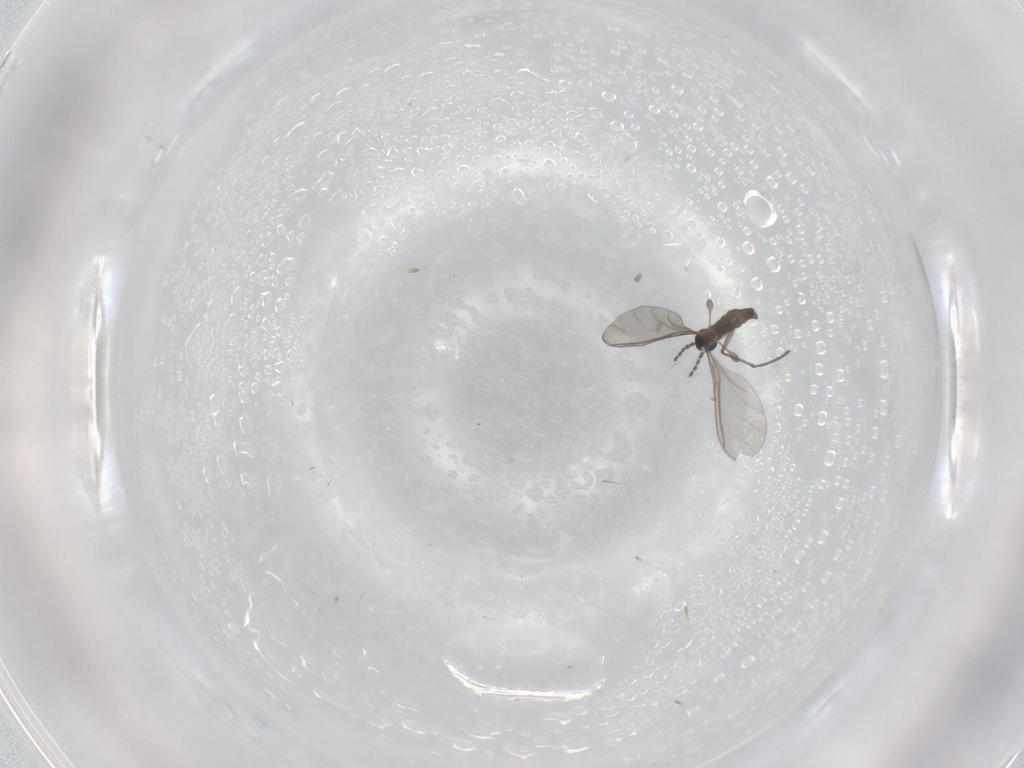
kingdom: Animalia
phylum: Arthropoda
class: Insecta
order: Diptera
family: Sciaridae
